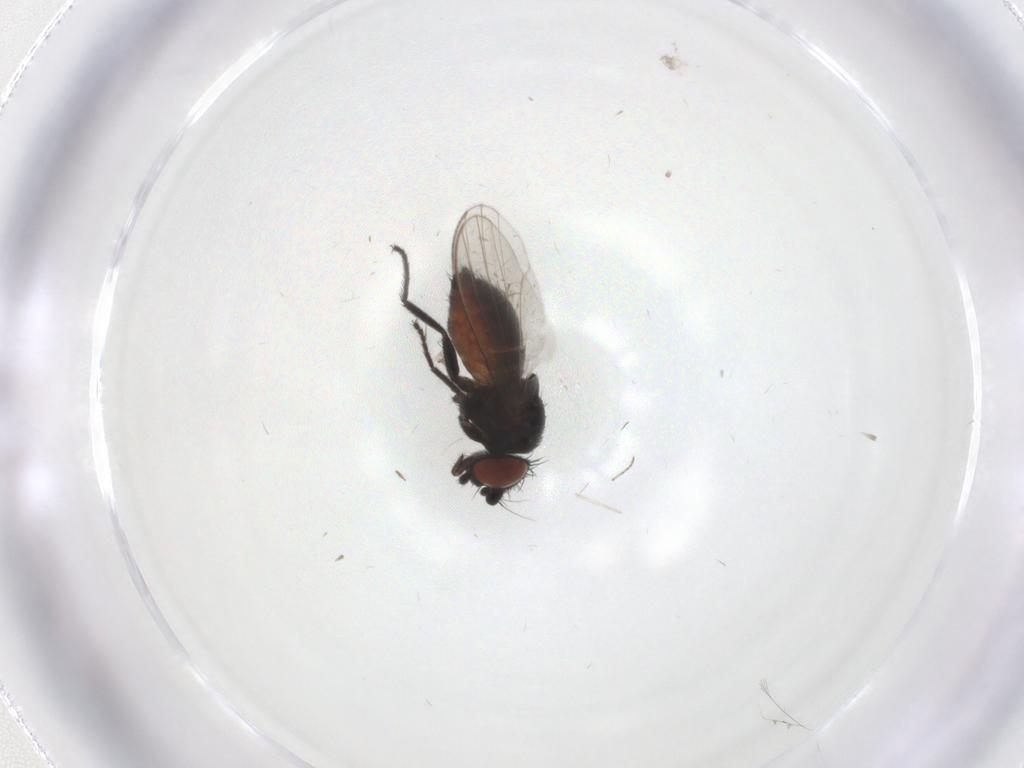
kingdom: Animalia
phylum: Arthropoda
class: Insecta
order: Diptera
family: Milichiidae
